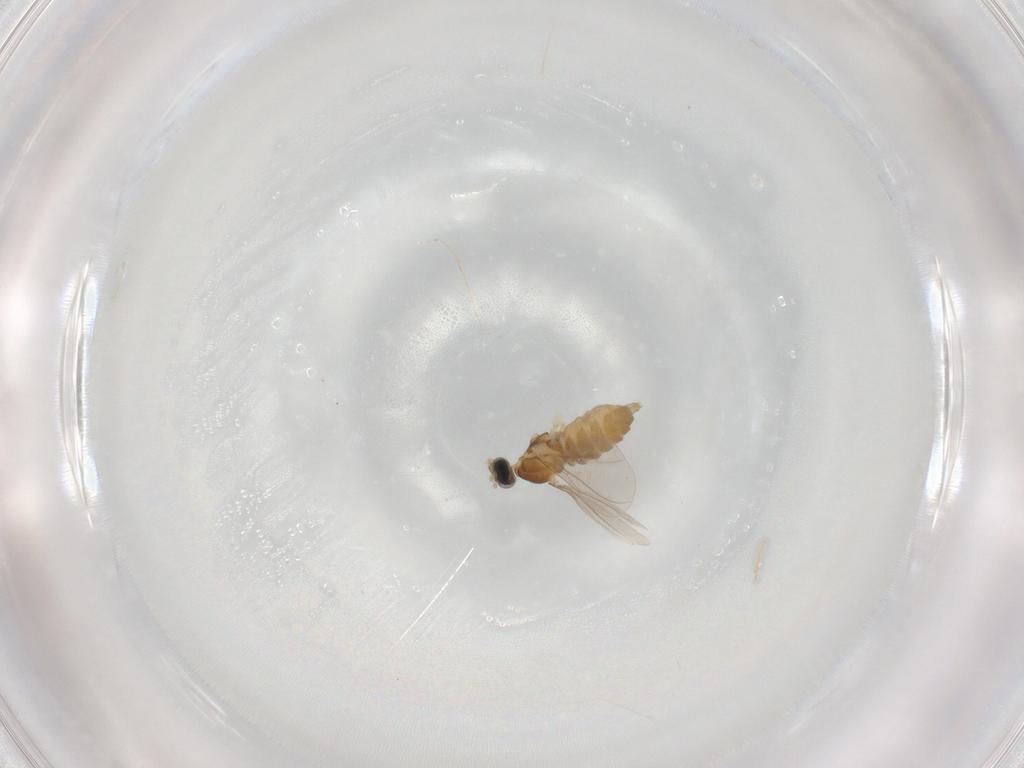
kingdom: Animalia
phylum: Arthropoda
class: Insecta
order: Diptera
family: Cecidomyiidae
